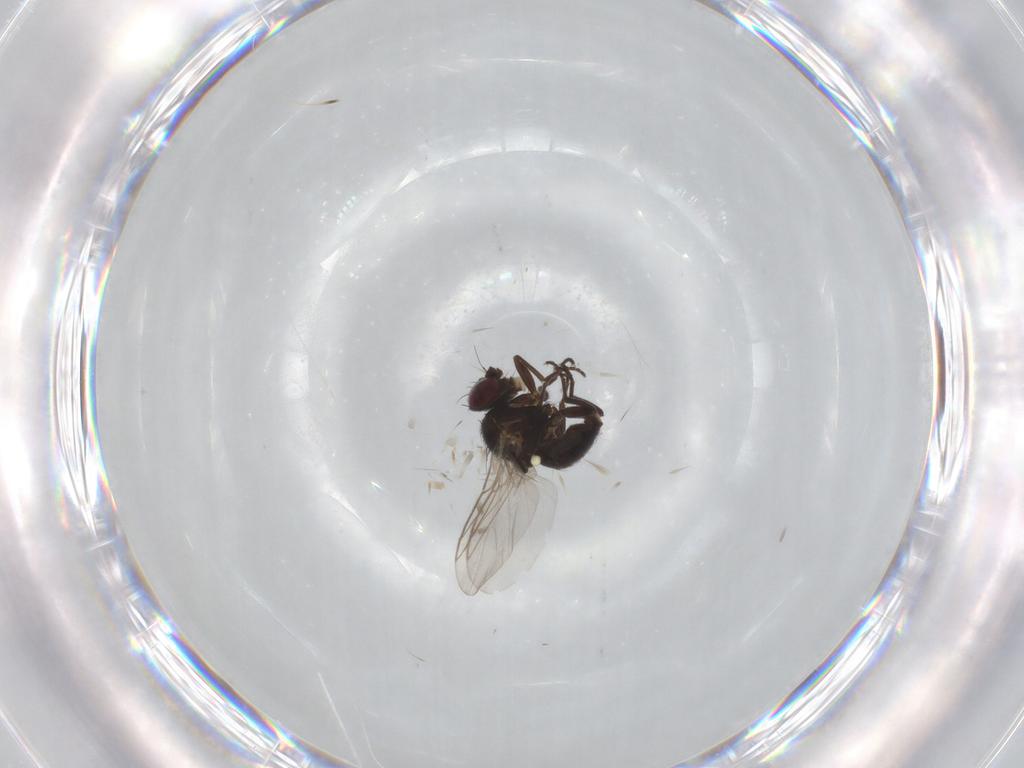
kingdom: Animalia
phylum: Arthropoda
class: Insecta
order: Diptera
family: Phoridae
